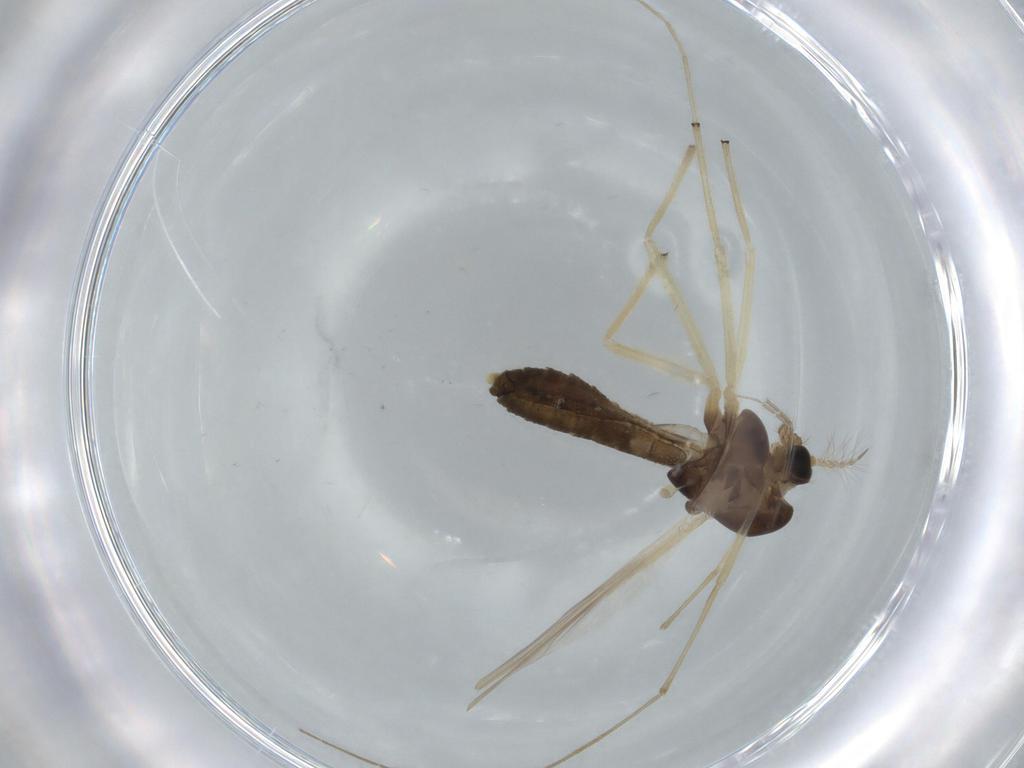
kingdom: Animalia
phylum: Arthropoda
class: Insecta
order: Diptera
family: Chironomidae
